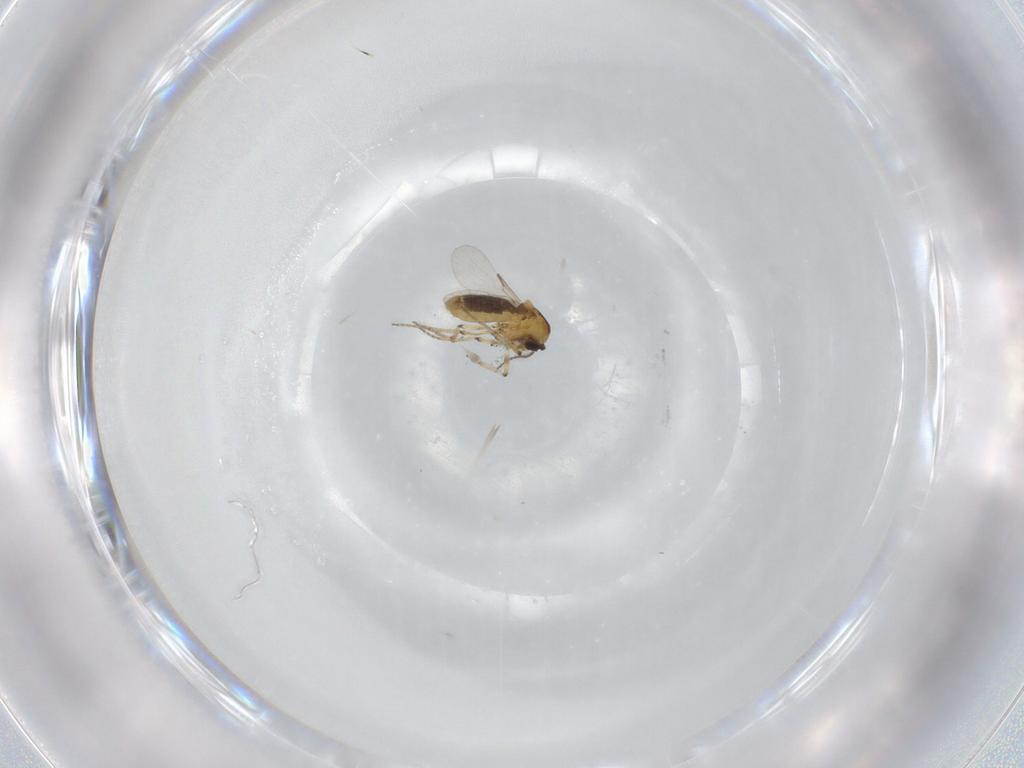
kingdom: Animalia
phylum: Arthropoda
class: Insecta
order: Diptera
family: Ceratopogonidae
